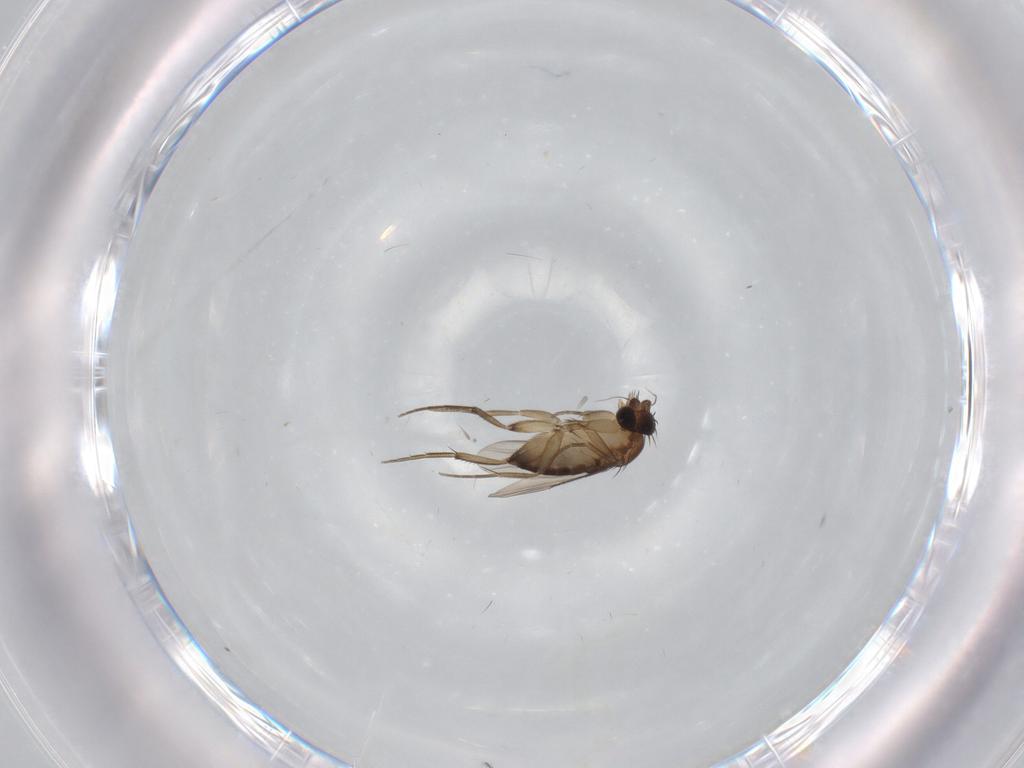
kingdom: Animalia
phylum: Arthropoda
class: Insecta
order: Diptera
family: Phoridae
